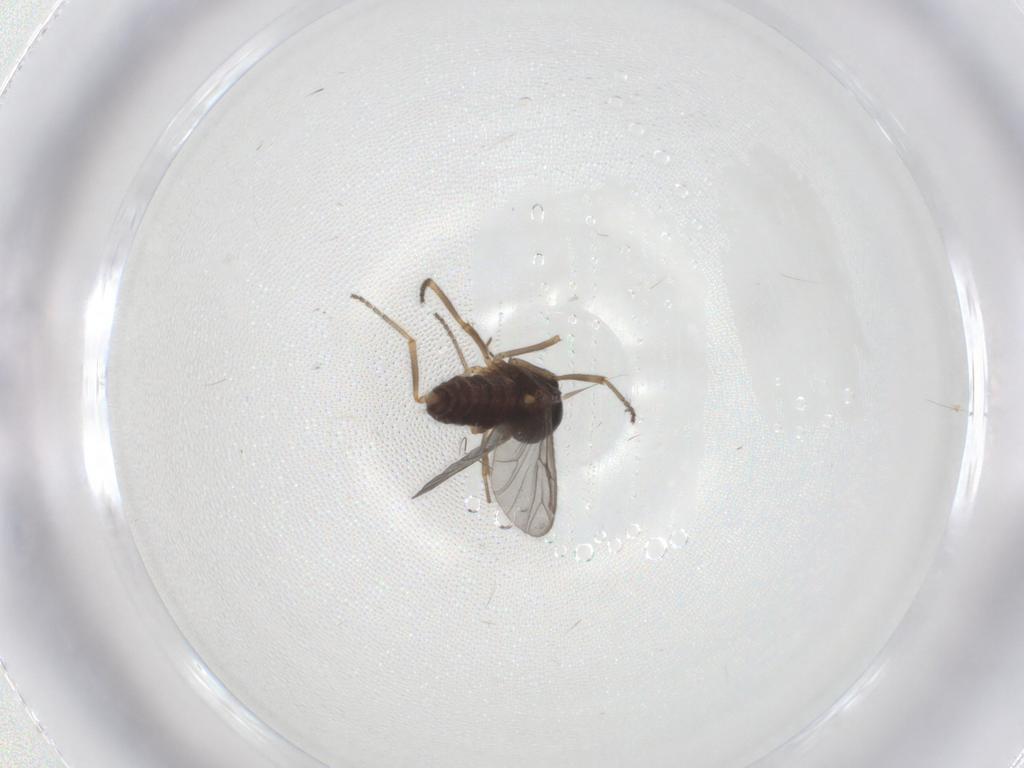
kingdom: Animalia
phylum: Arthropoda
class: Insecta
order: Diptera
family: Ceratopogonidae
